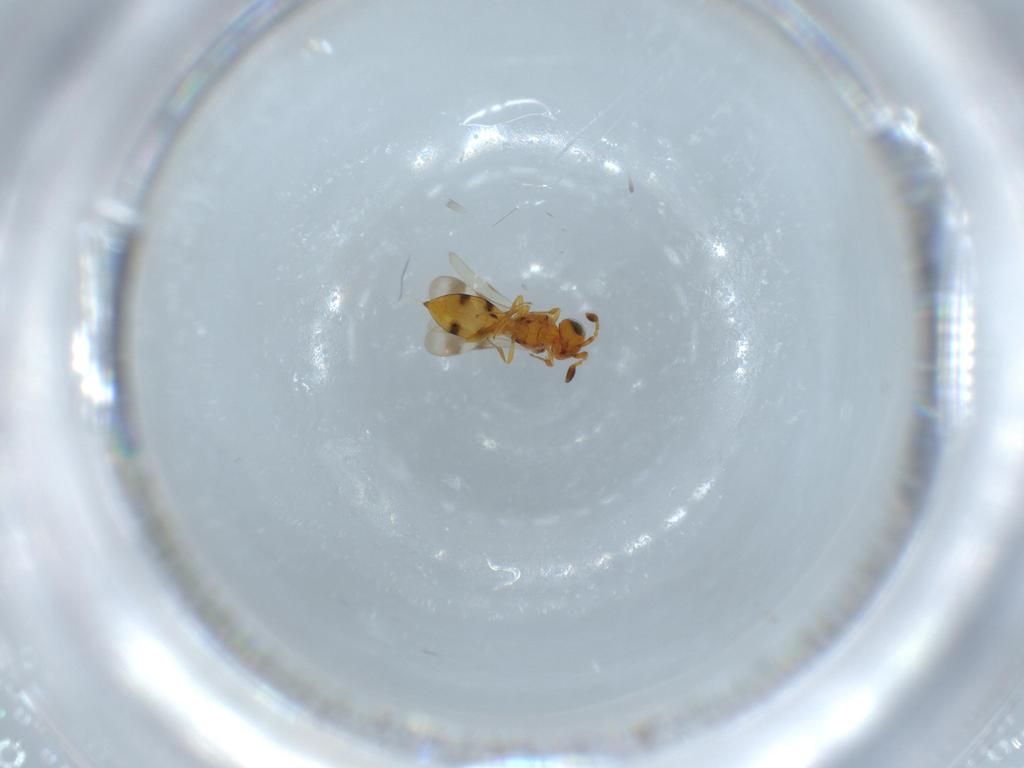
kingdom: Animalia
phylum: Arthropoda
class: Insecta
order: Hymenoptera
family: Scelionidae
